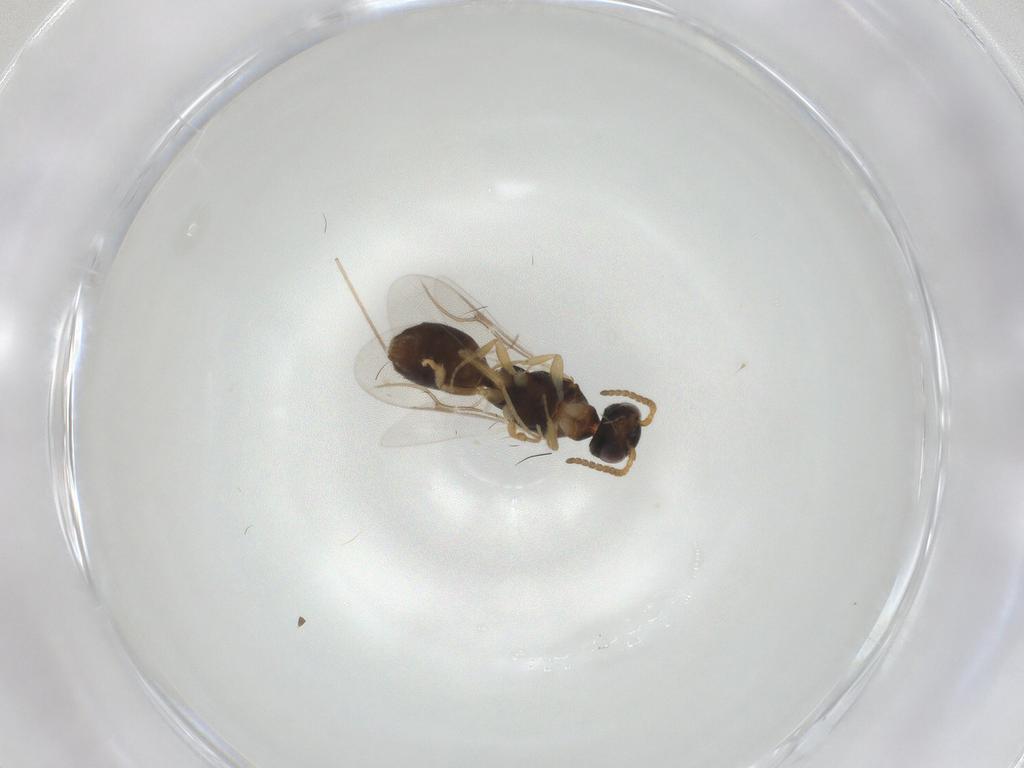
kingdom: Animalia
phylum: Arthropoda
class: Insecta
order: Hymenoptera
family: Bethylidae
